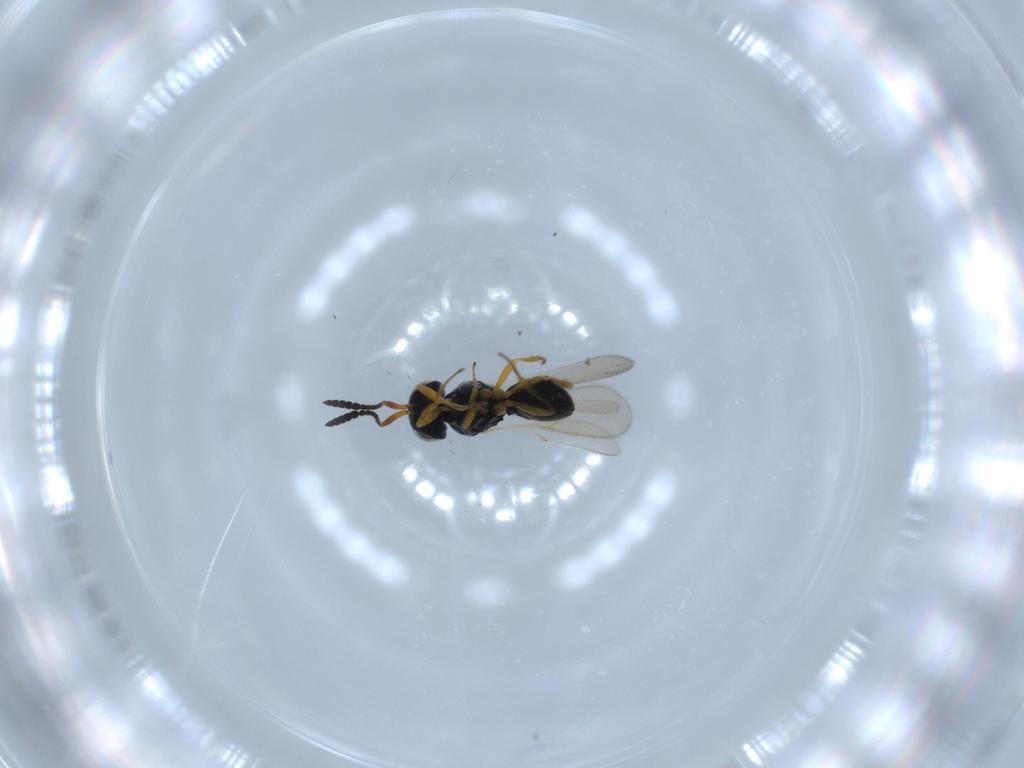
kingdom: Animalia
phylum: Arthropoda
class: Insecta
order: Hymenoptera
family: Scelionidae
